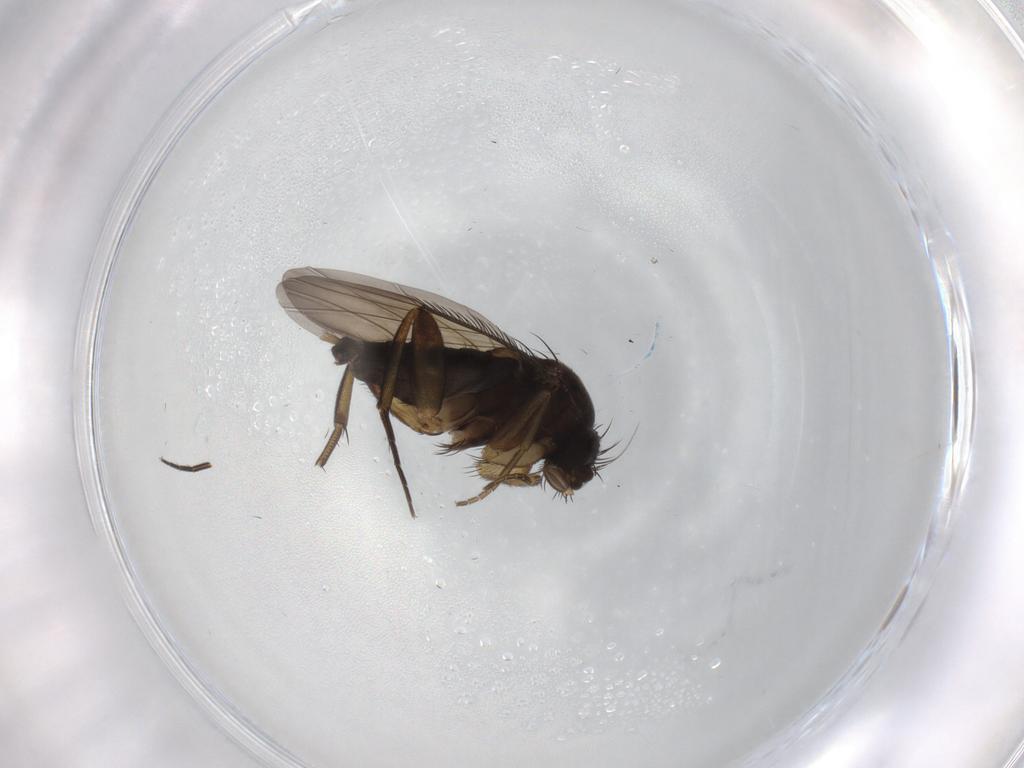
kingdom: Animalia
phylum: Arthropoda
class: Insecta
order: Diptera
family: Phoridae
